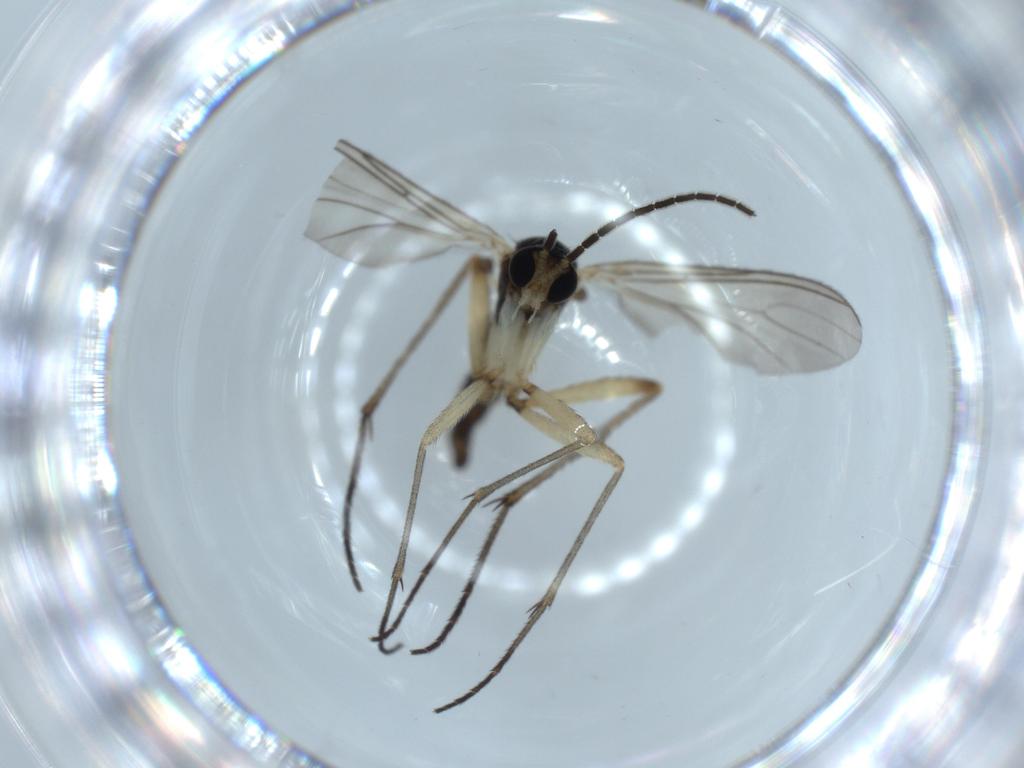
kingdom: Animalia
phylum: Arthropoda
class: Insecta
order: Diptera
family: Sciaridae
